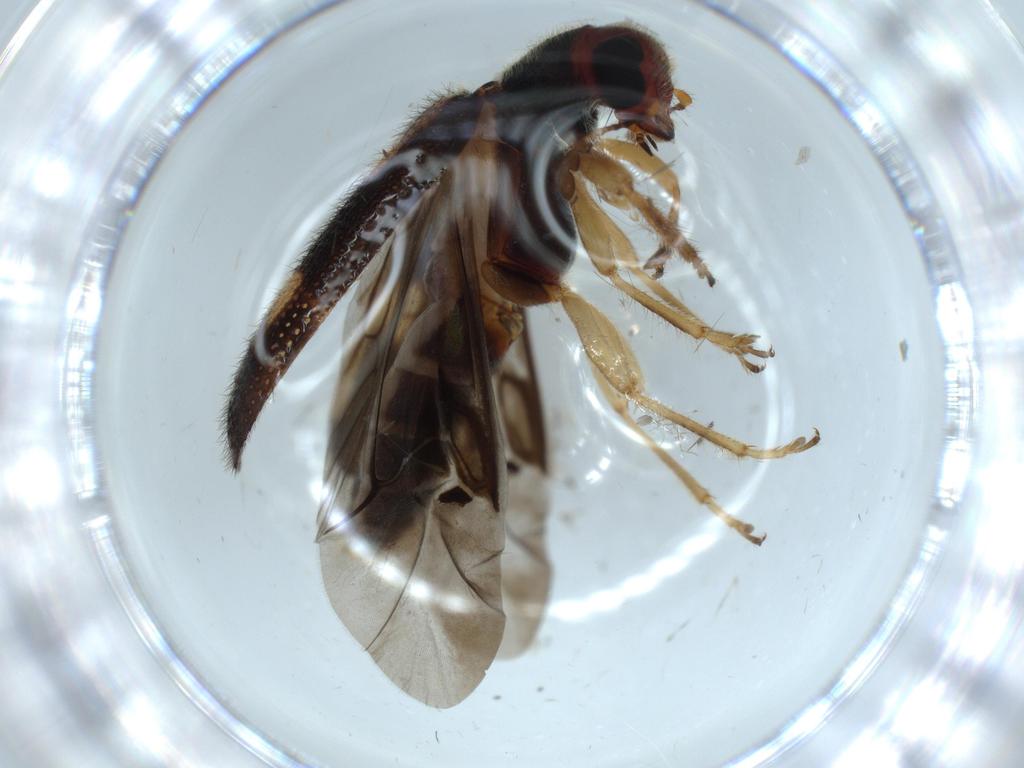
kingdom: Animalia
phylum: Arthropoda
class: Insecta
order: Coleoptera
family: Cleridae
